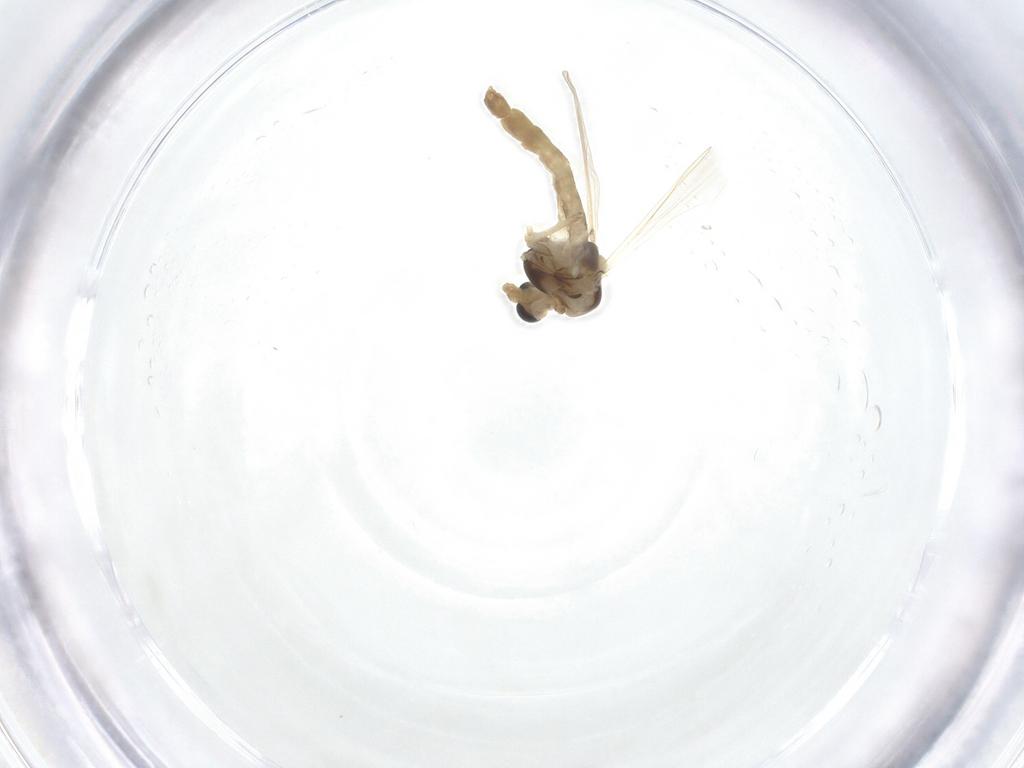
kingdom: Animalia
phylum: Arthropoda
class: Insecta
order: Diptera
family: Chironomidae
